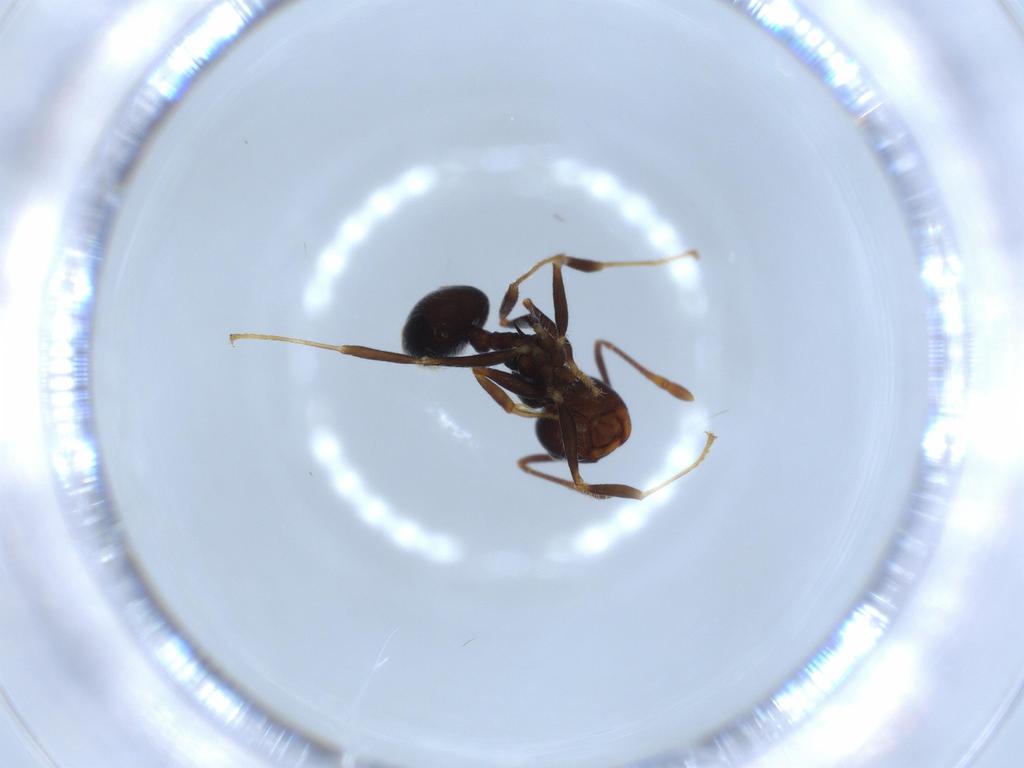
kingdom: Animalia
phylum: Arthropoda
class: Insecta
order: Hymenoptera
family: Formicidae
